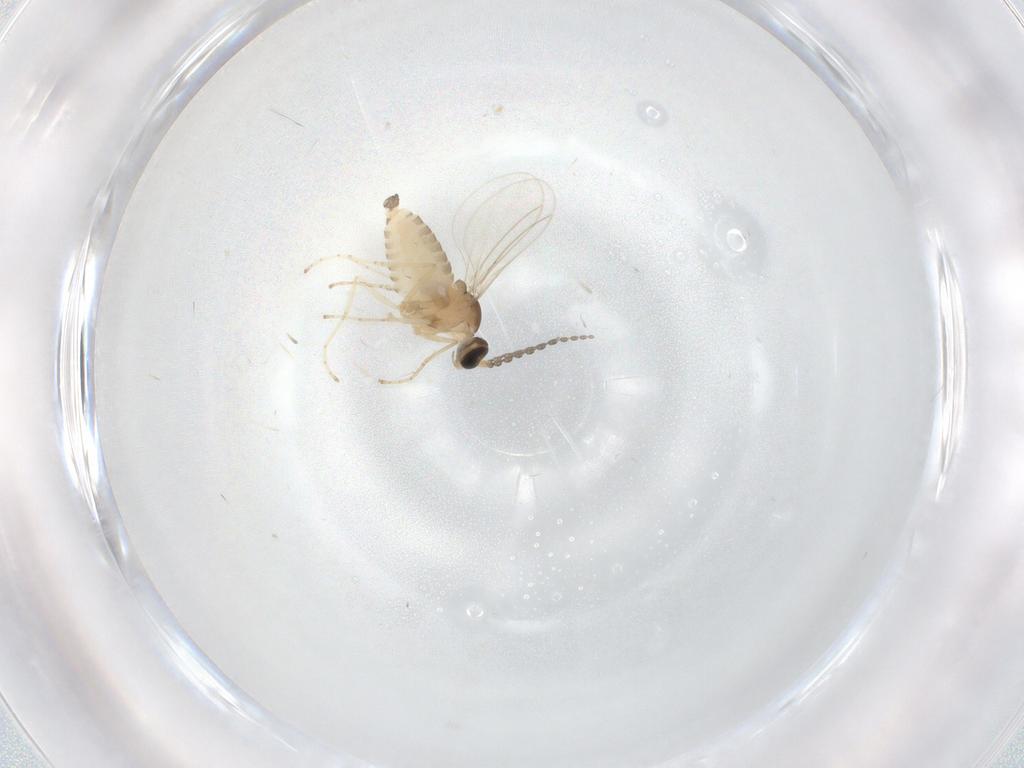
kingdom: Animalia
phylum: Arthropoda
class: Insecta
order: Diptera
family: Cecidomyiidae
